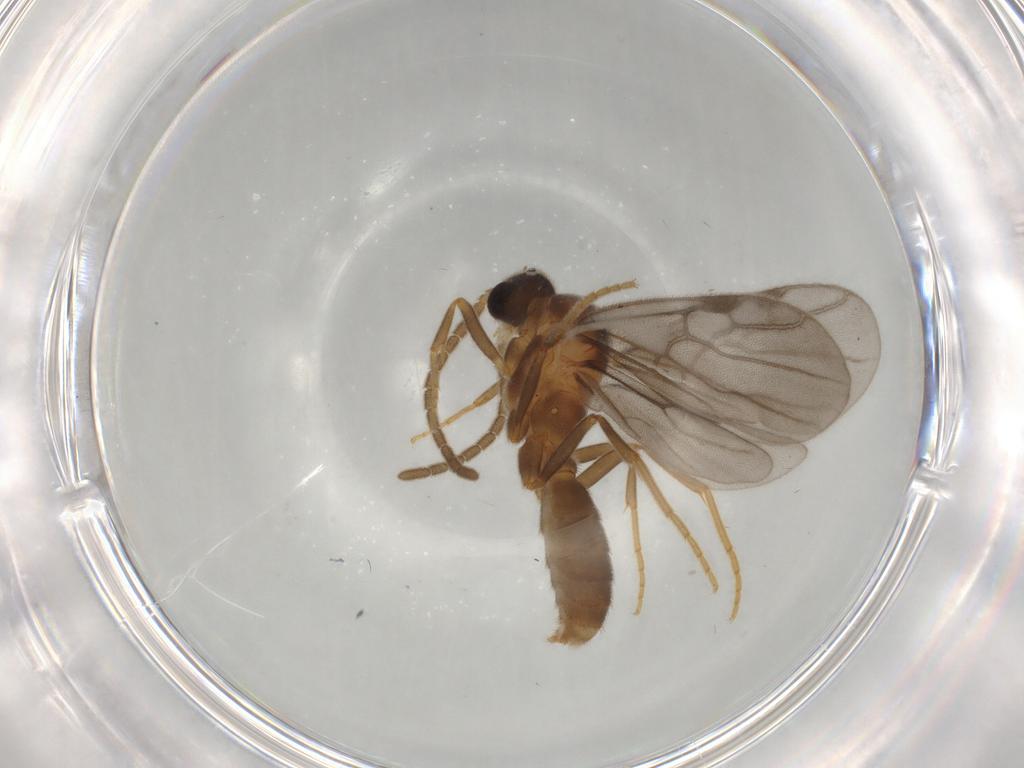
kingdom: Animalia
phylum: Arthropoda
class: Insecta
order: Hymenoptera
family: Formicidae
